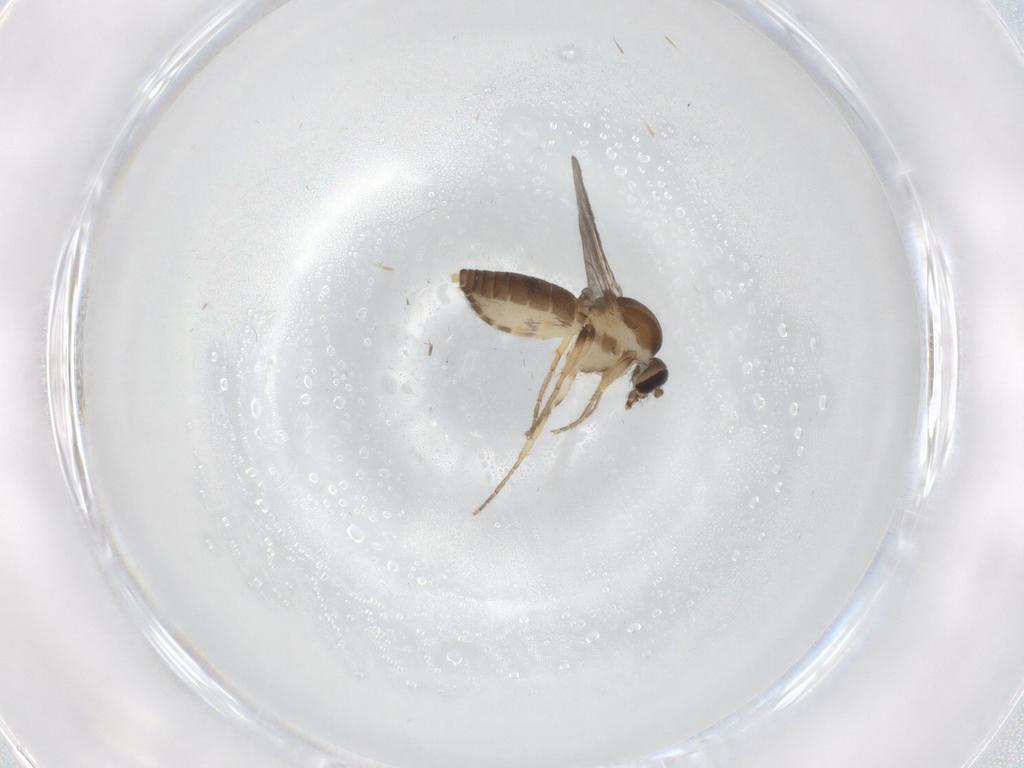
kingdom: Animalia
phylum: Arthropoda
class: Insecta
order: Diptera
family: Ceratopogonidae
